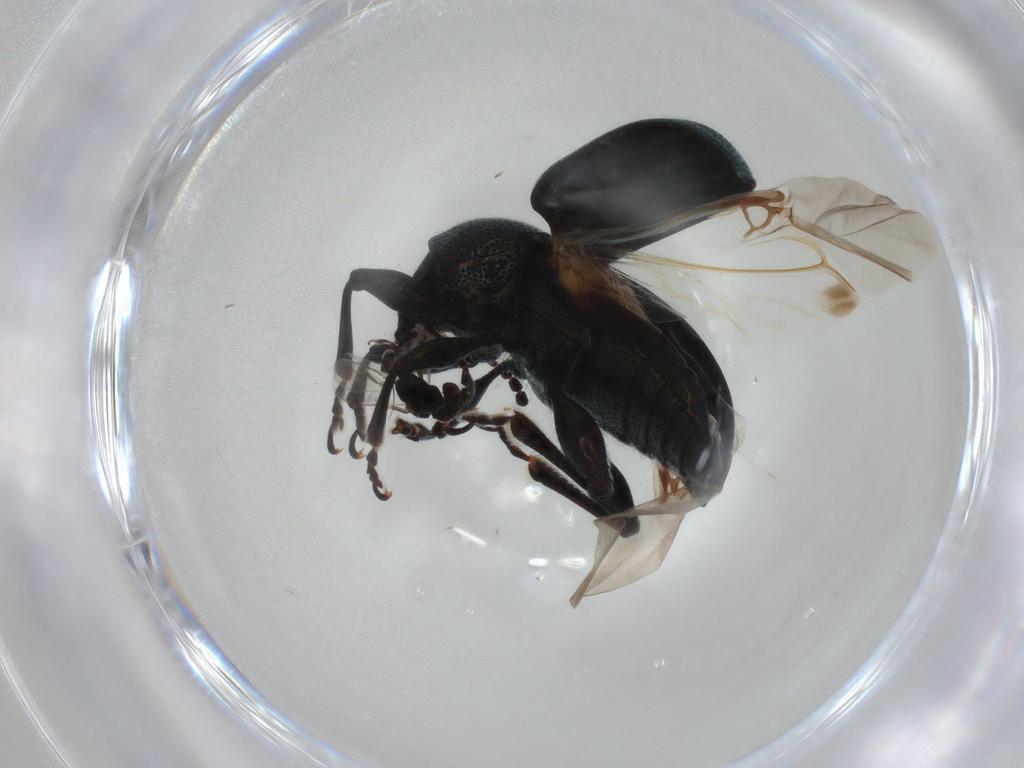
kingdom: Animalia
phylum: Arthropoda
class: Insecta
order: Coleoptera
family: Chrysomelidae
